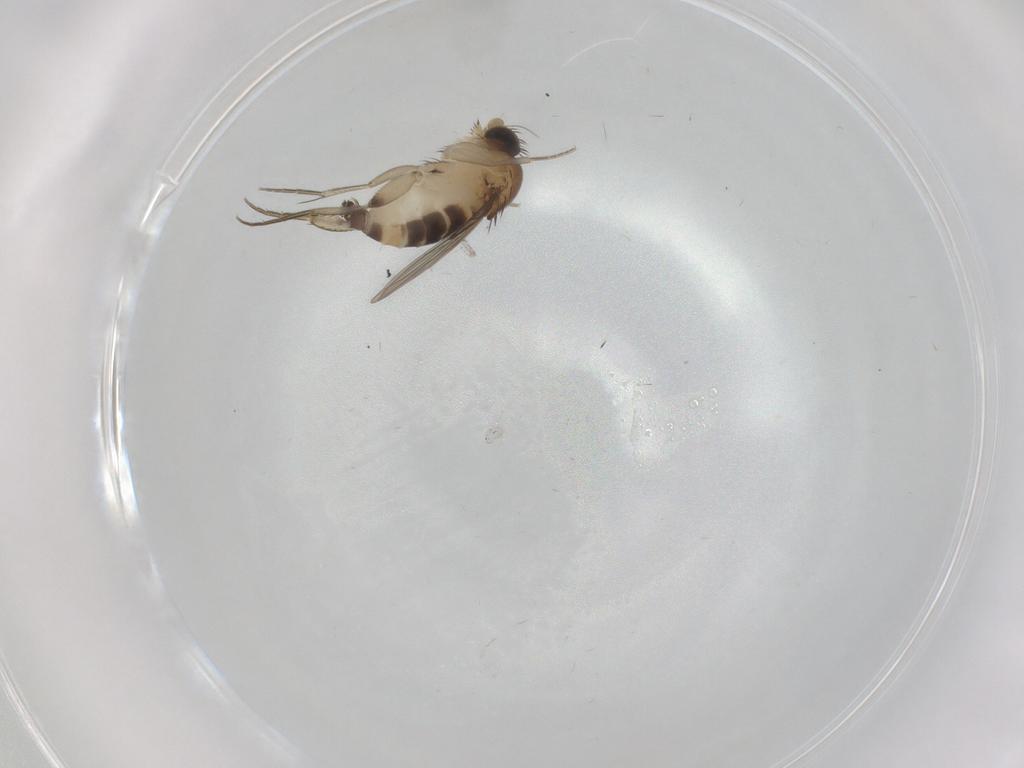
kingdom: Animalia
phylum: Arthropoda
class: Insecta
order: Diptera
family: Phoridae
